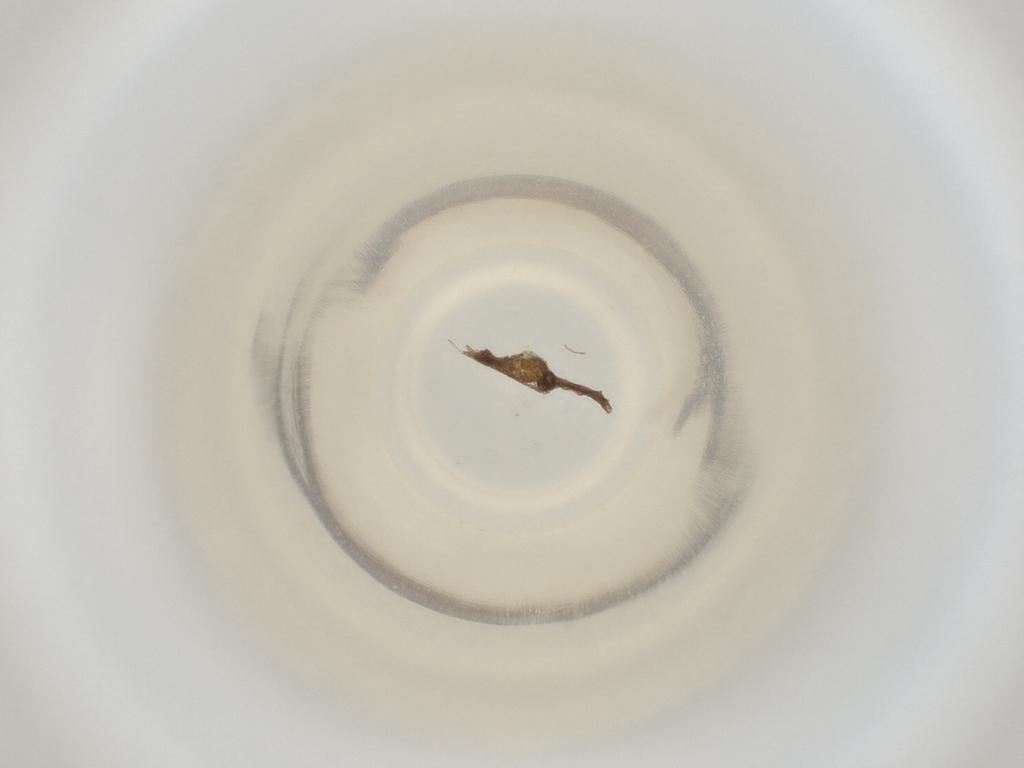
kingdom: Animalia
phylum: Arthropoda
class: Insecta
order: Diptera
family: Cecidomyiidae
